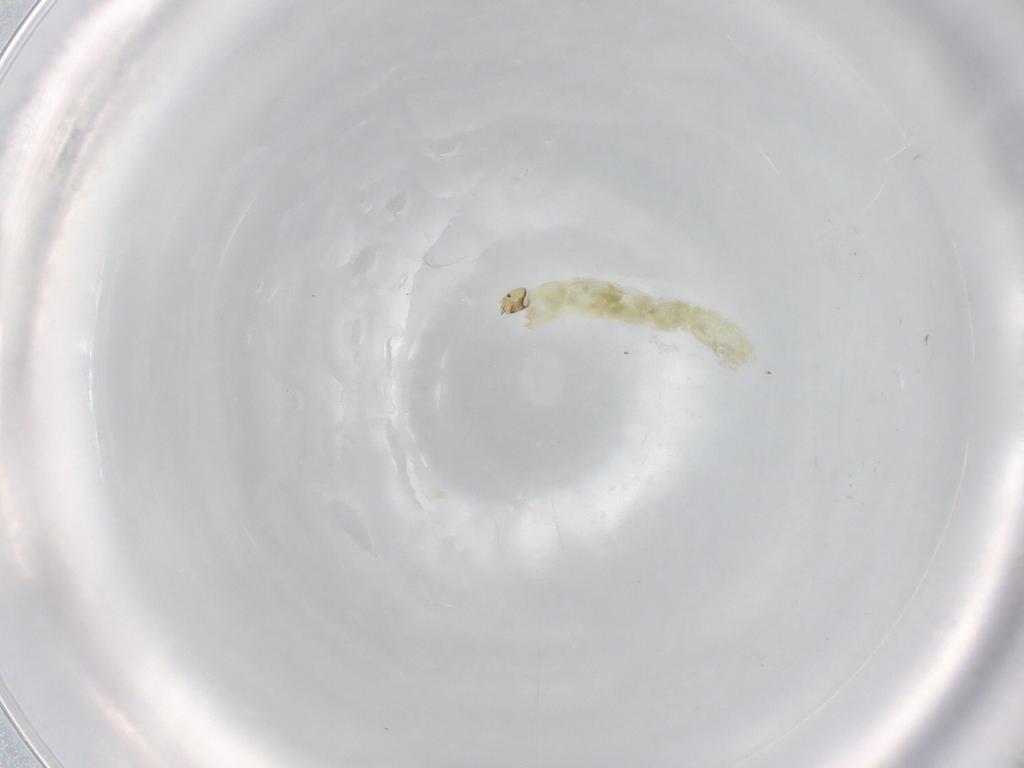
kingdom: Animalia
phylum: Arthropoda
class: Insecta
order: Diptera
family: Chironomidae
